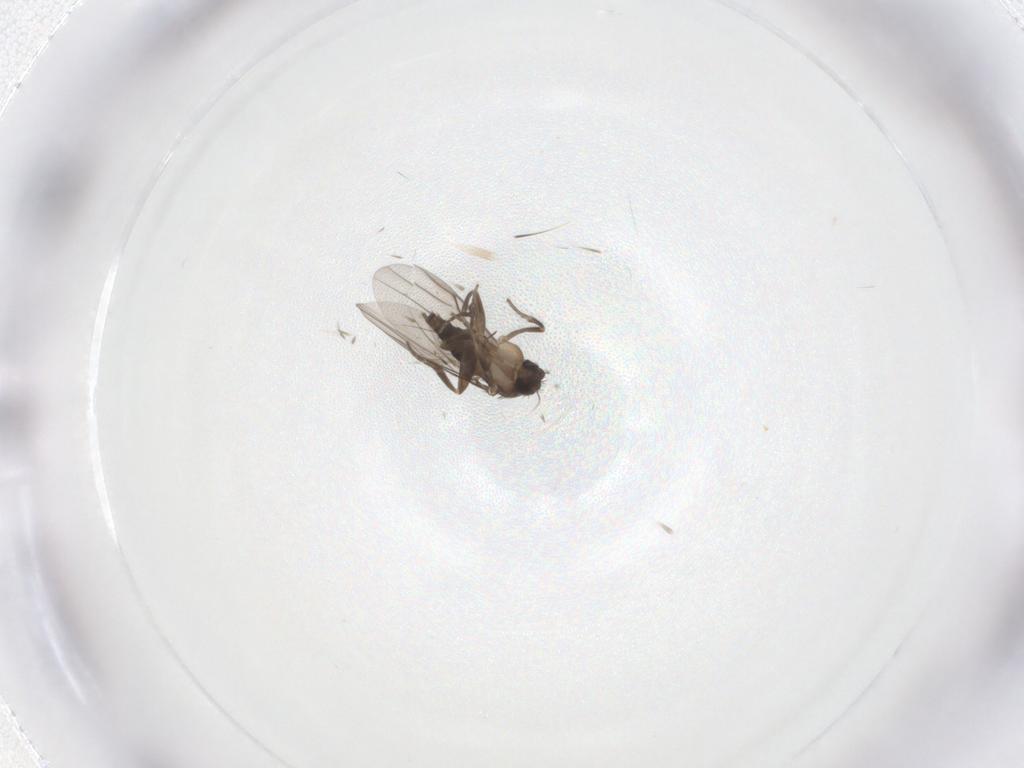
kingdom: Animalia
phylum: Arthropoda
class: Insecta
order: Diptera
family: Phoridae
